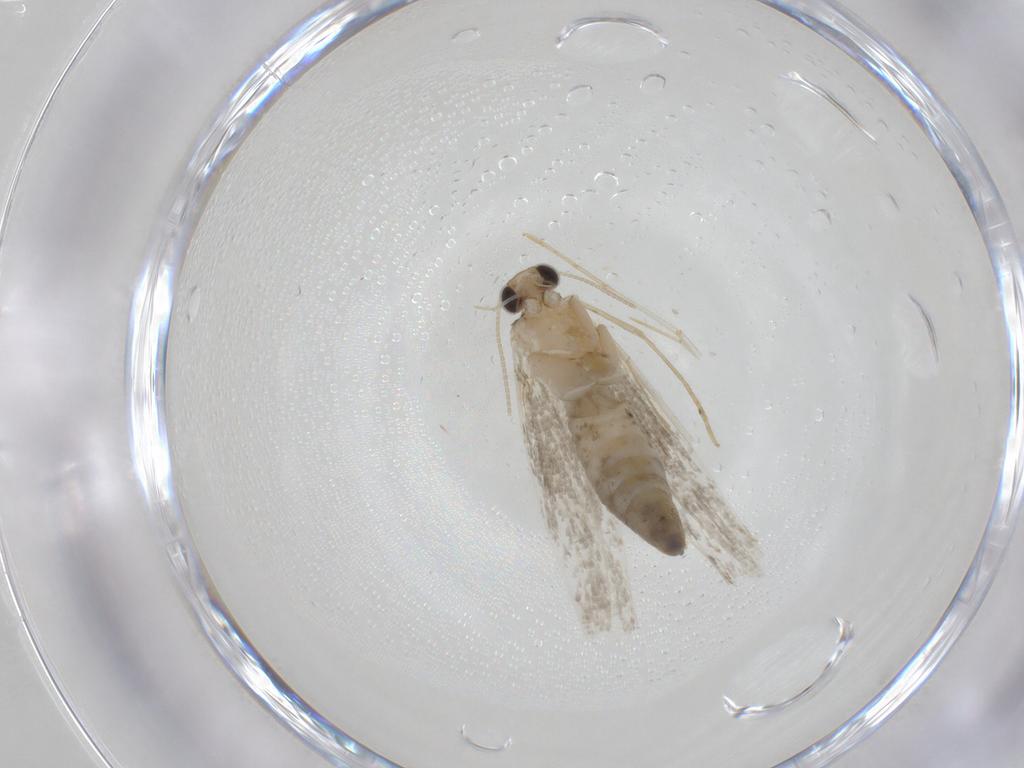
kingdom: Animalia
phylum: Arthropoda
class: Insecta
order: Lepidoptera
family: Tineidae
